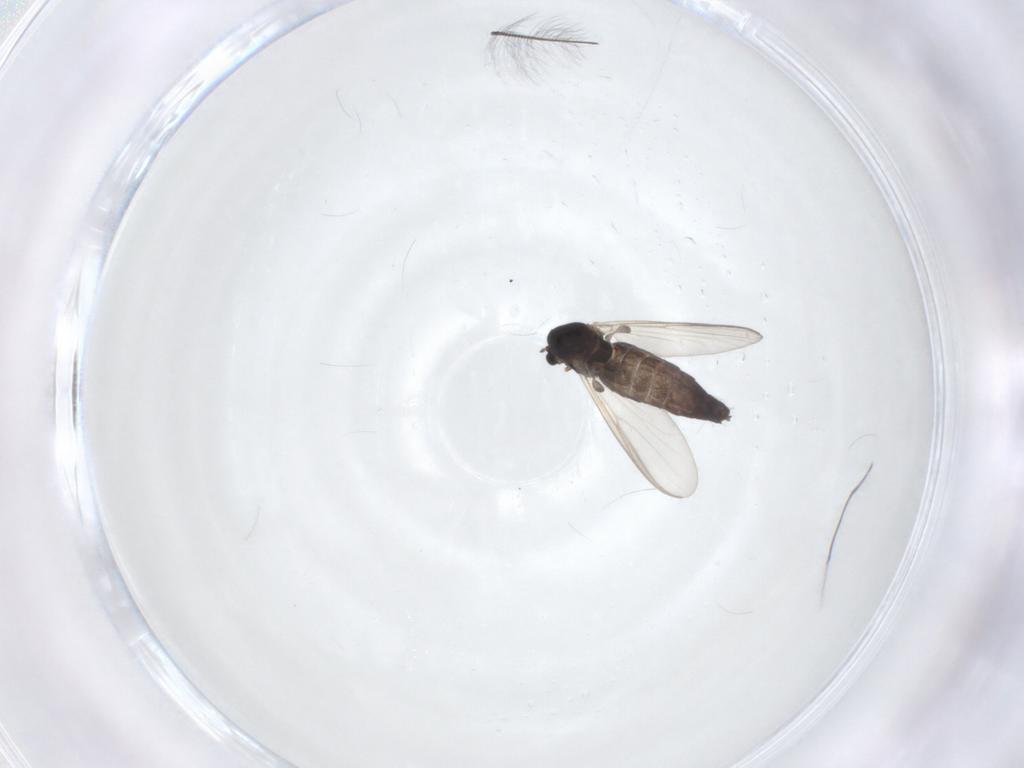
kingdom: Animalia
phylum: Arthropoda
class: Insecta
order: Diptera
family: Chironomidae
